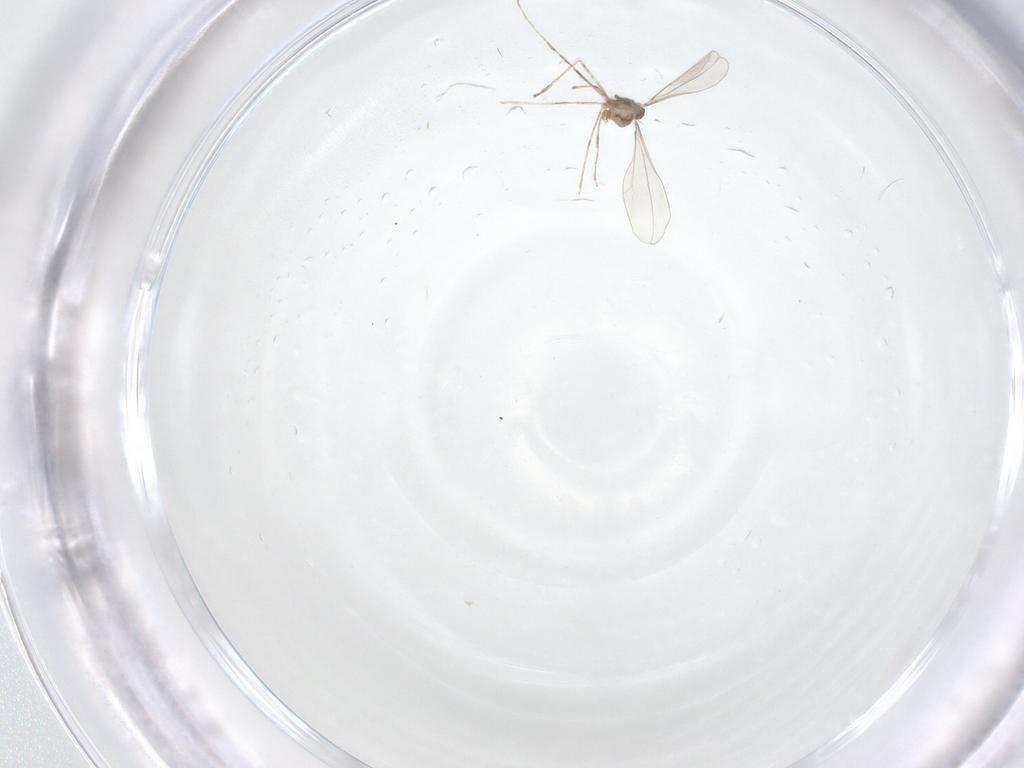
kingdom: Animalia
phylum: Arthropoda
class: Insecta
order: Diptera
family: Cecidomyiidae
